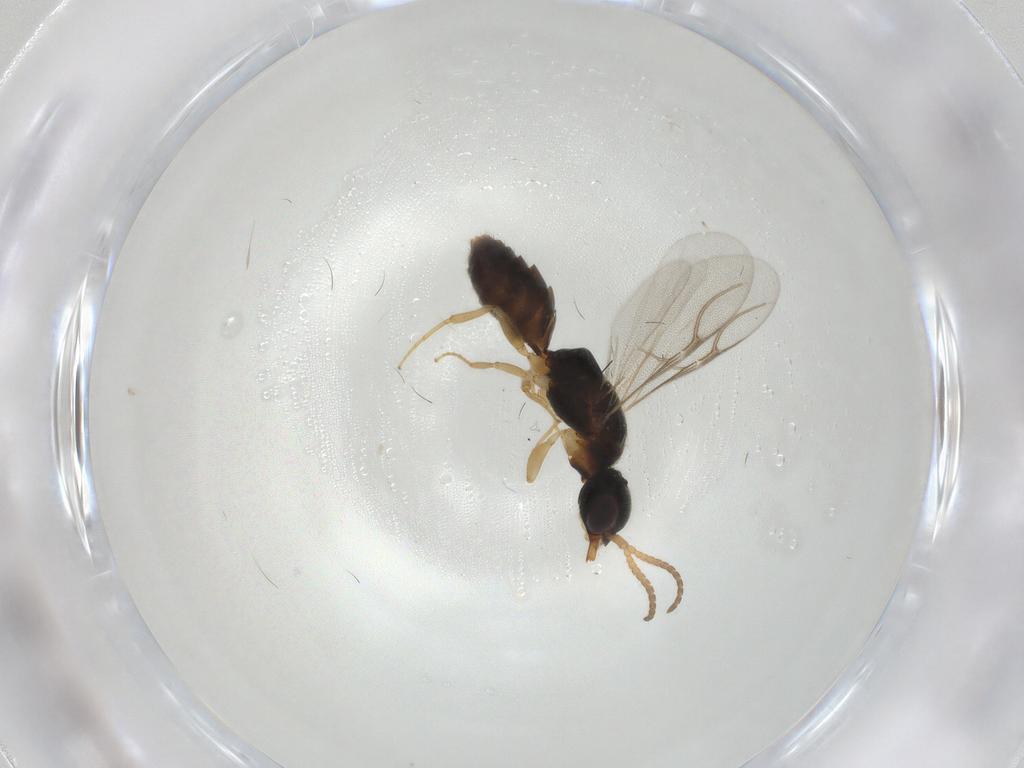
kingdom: Animalia
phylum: Arthropoda
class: Insecta
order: Hymenoptera
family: Bethylidae
